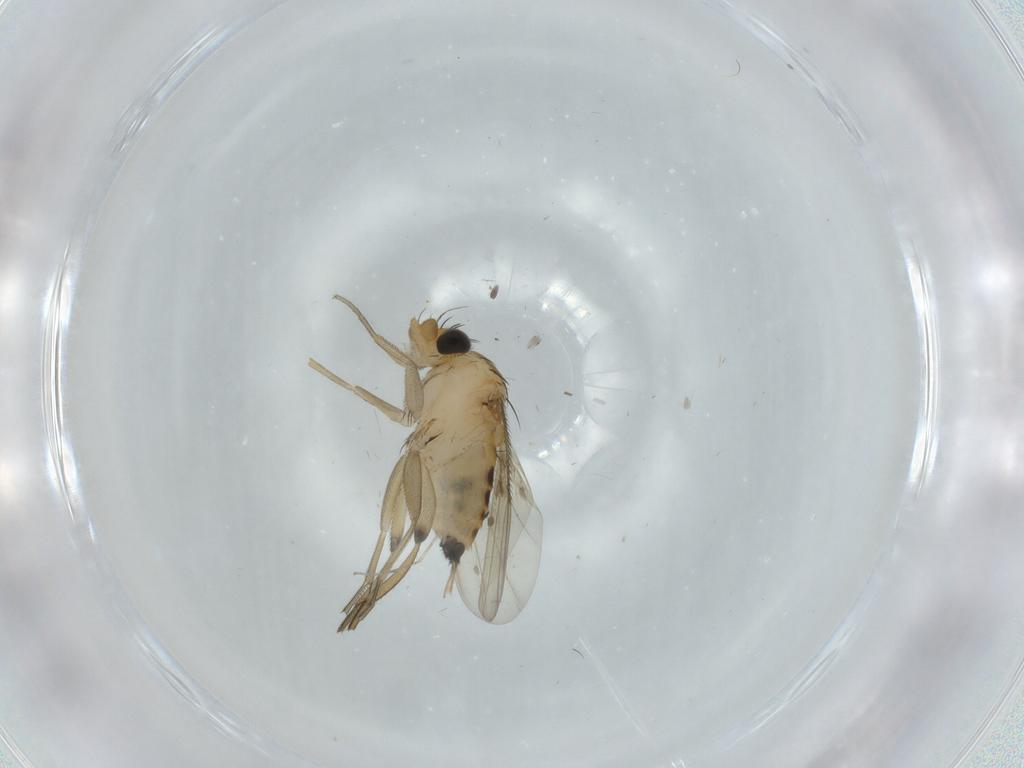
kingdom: Animalia
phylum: Arthropoda
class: Insecta
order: Diptera
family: Phoridae
